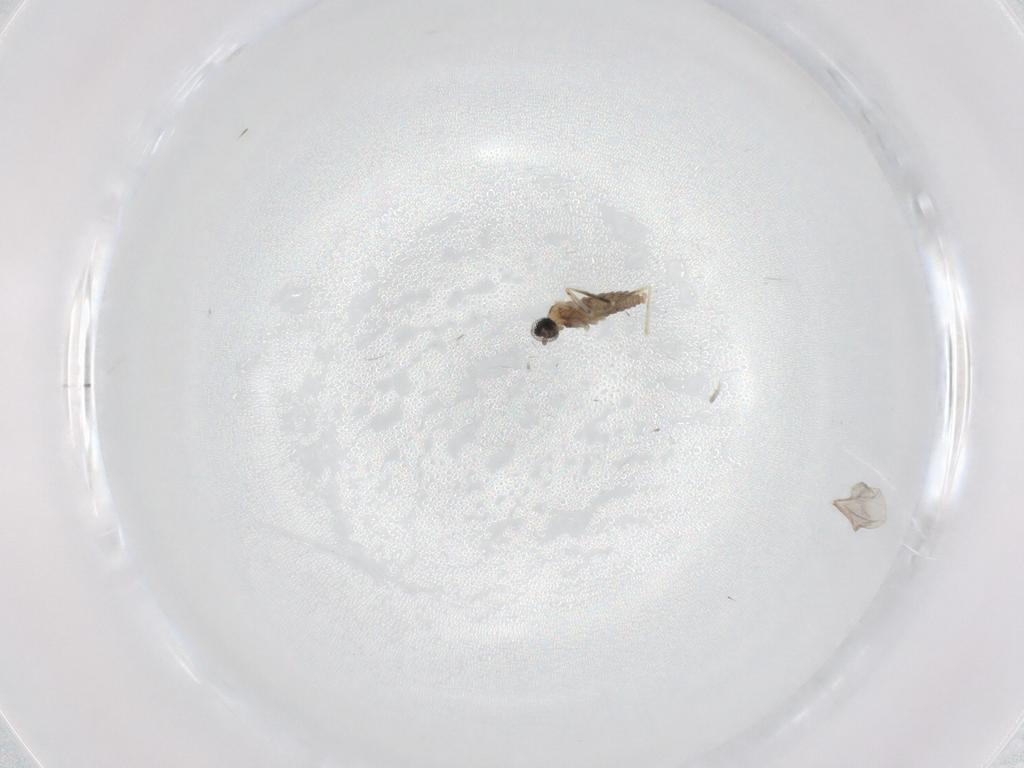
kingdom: Animalia
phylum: Arthropoda
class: Insecta
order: Diptera
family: Cecidomyiidae
